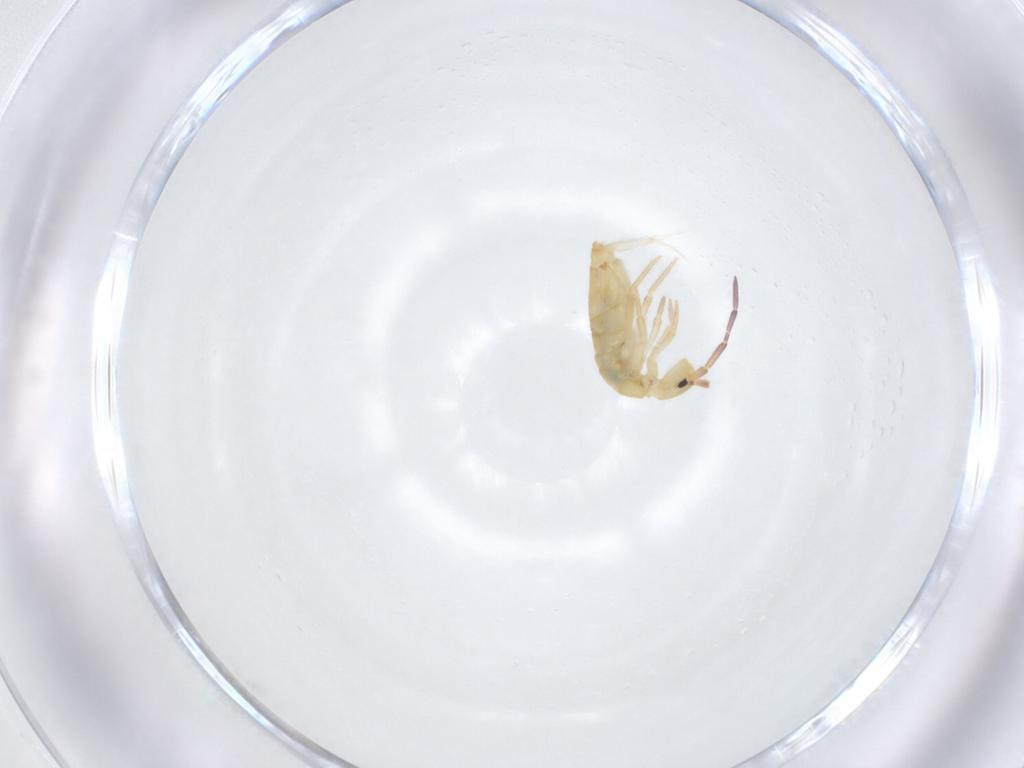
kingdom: Animalia
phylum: Arthropoda
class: Collembola
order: Entomobryomorpha
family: Entomobryidae
